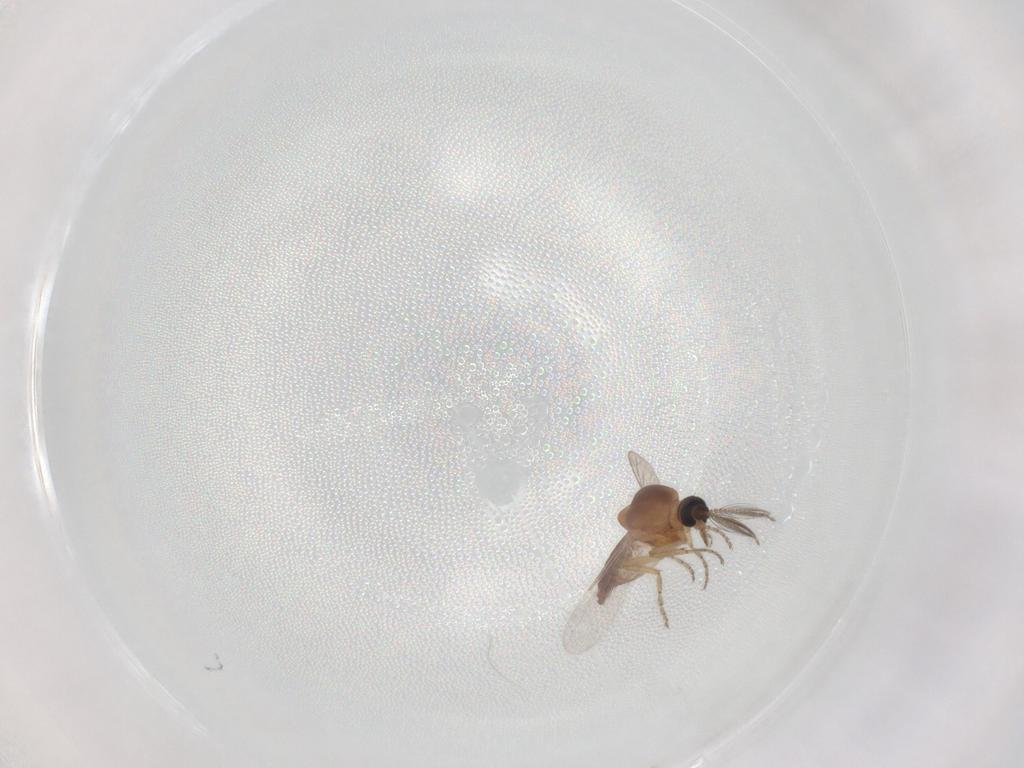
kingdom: Animalia
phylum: Arthropoda
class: Insecta
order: Diptera
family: Ceratopogonidae
